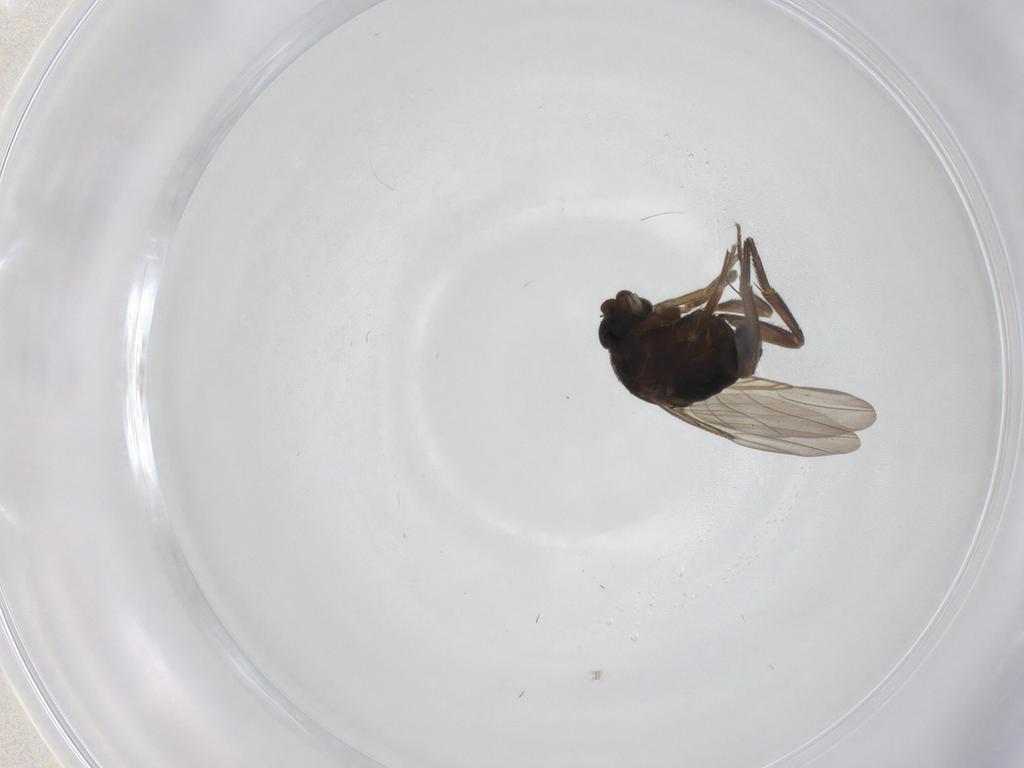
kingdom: Animalia
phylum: Arthropoda
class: Insecta
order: Diptera
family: Phoridae
